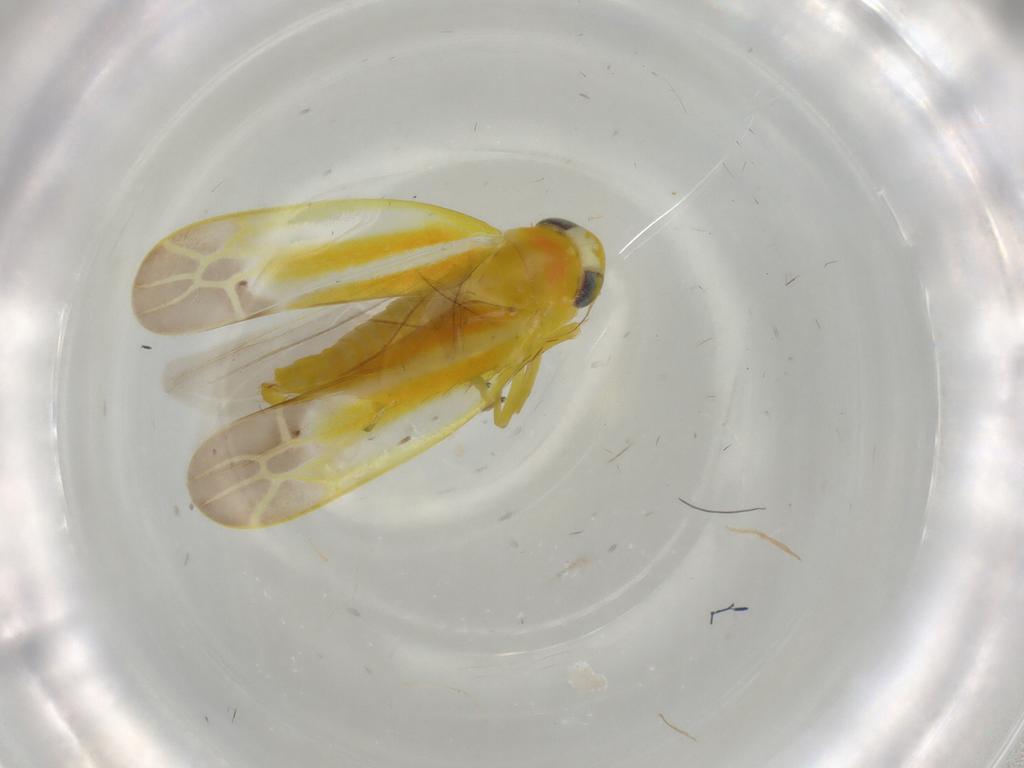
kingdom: Animalia
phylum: Arthropoda
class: Insecta
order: Hemiptera
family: Cicadellidae
